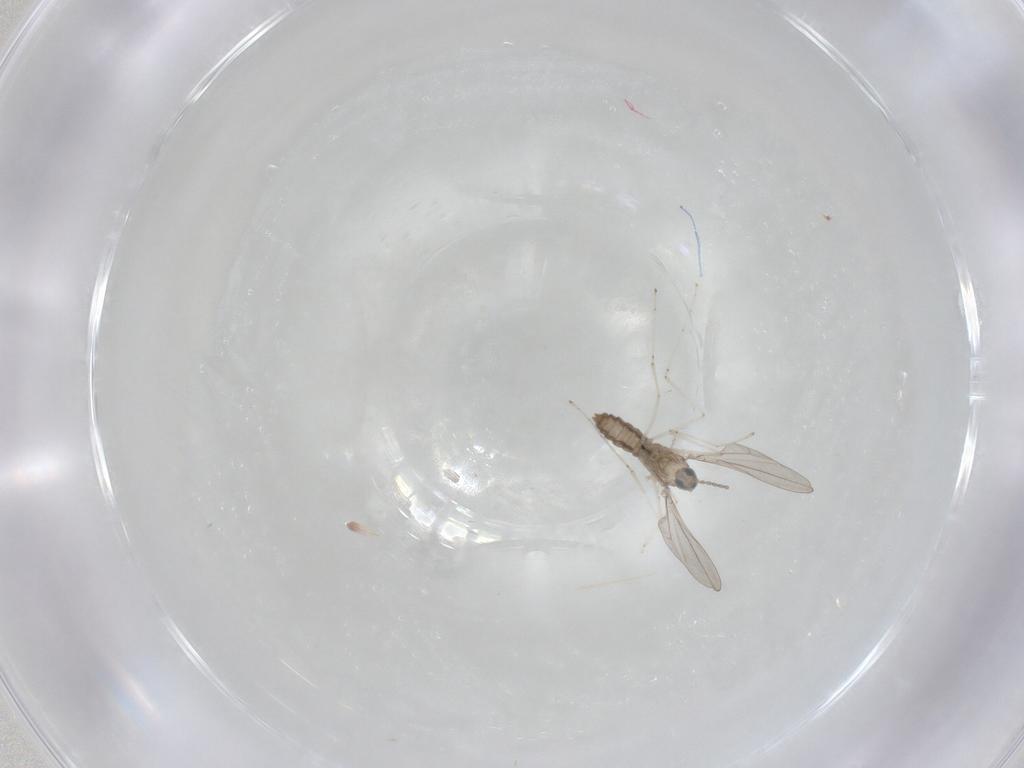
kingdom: Animalia
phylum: Arthropoda
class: Insecta
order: Diptera
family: Cecidomyiidae
